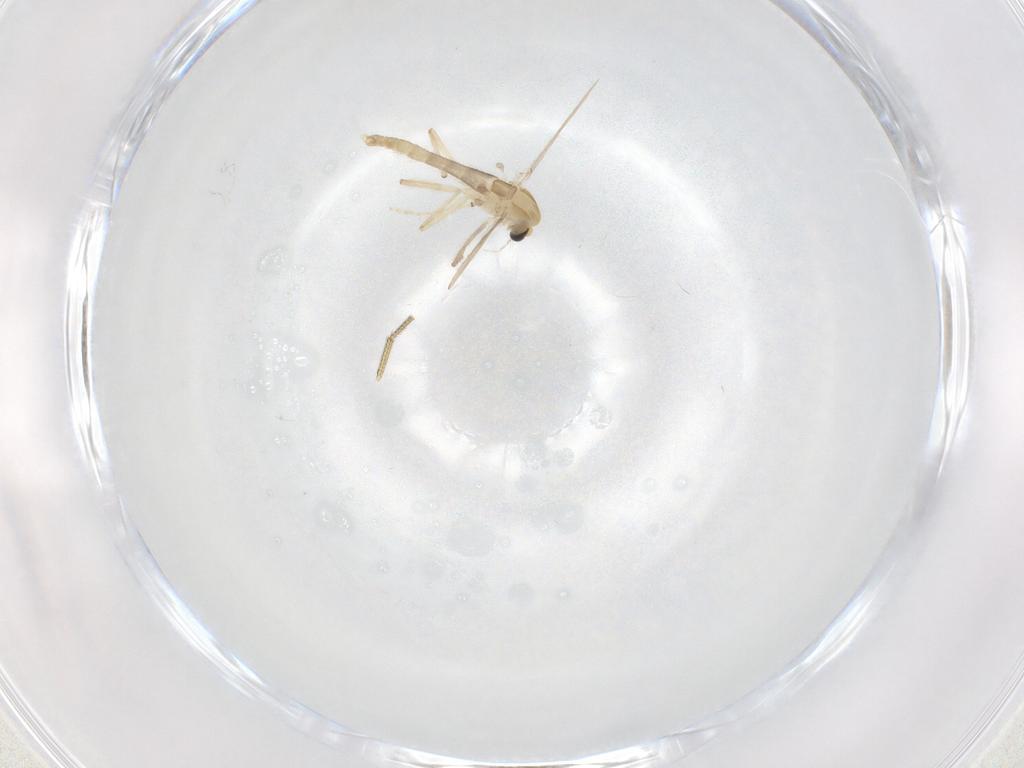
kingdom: Animalia
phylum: Arthropoda
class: Insecta
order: Diptera
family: Chironomidae
